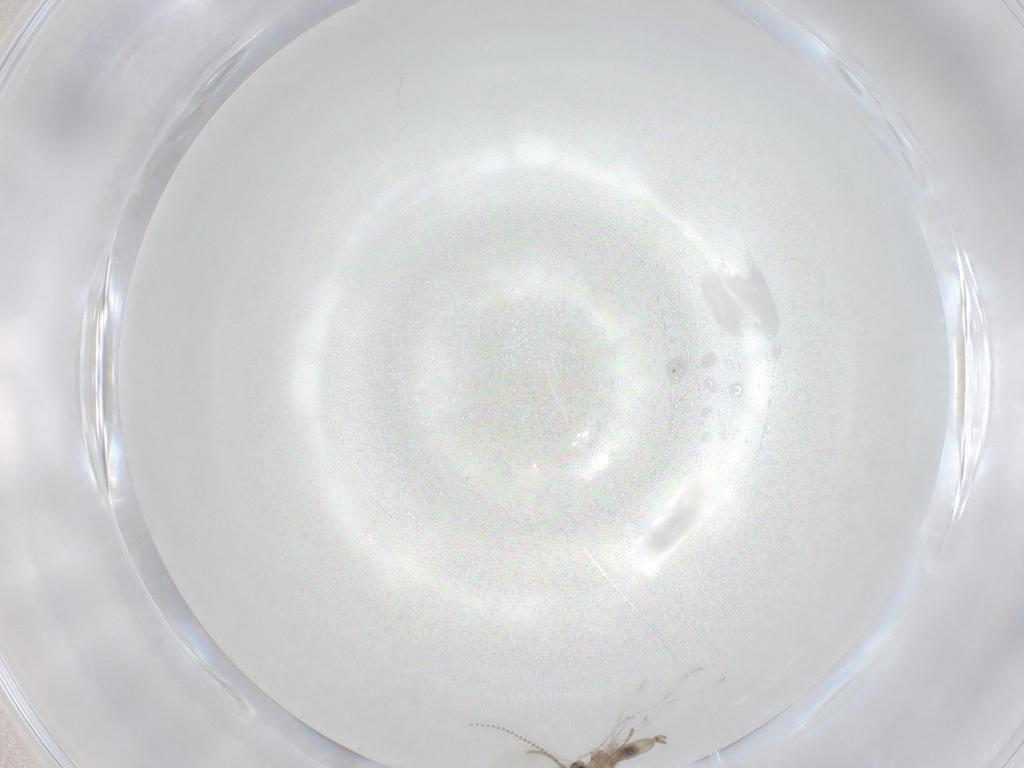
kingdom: Animalia
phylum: Arthropoda
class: Insecta
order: Diptera
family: Cecidomyiidae
